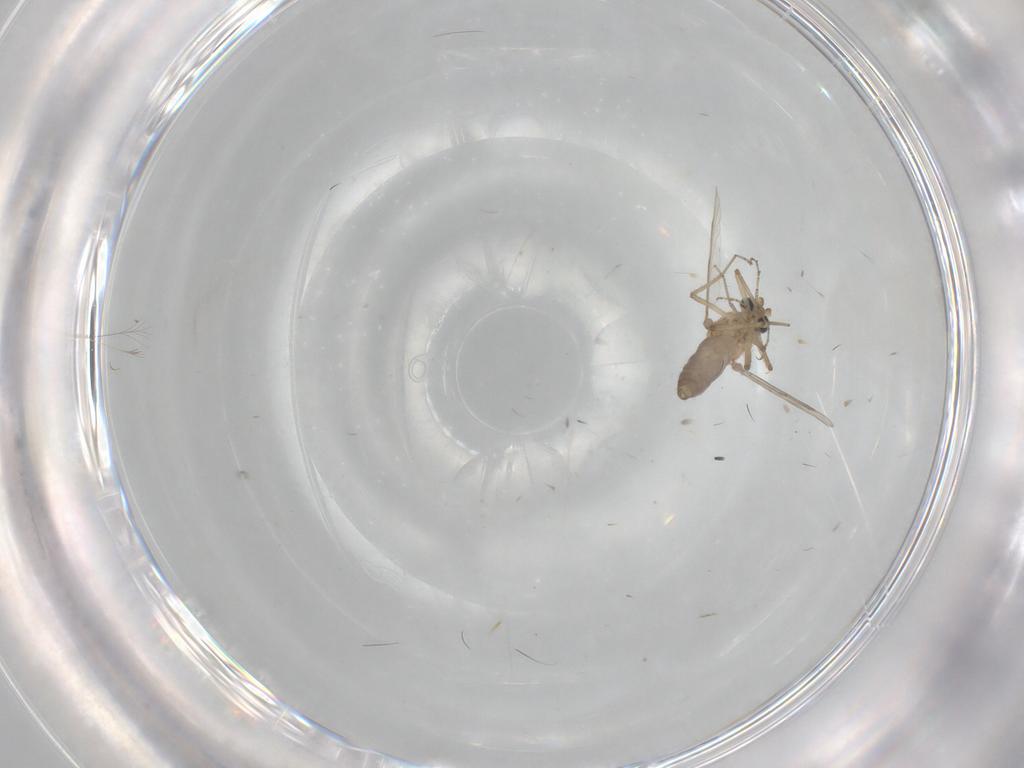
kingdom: Animalia
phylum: Arthropoda
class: Insecta
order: Diptera
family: Ceratopogonidae
